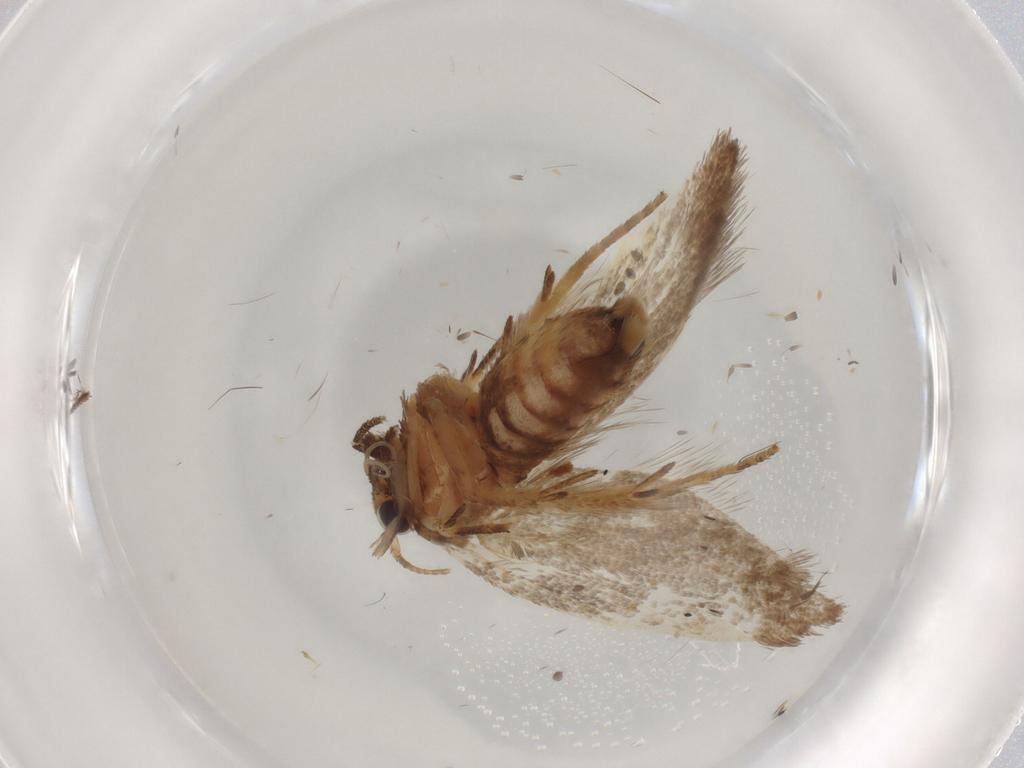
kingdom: Animalia
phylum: Arthropoda
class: Insecta
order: Lepidoptera
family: Oecophoridae
